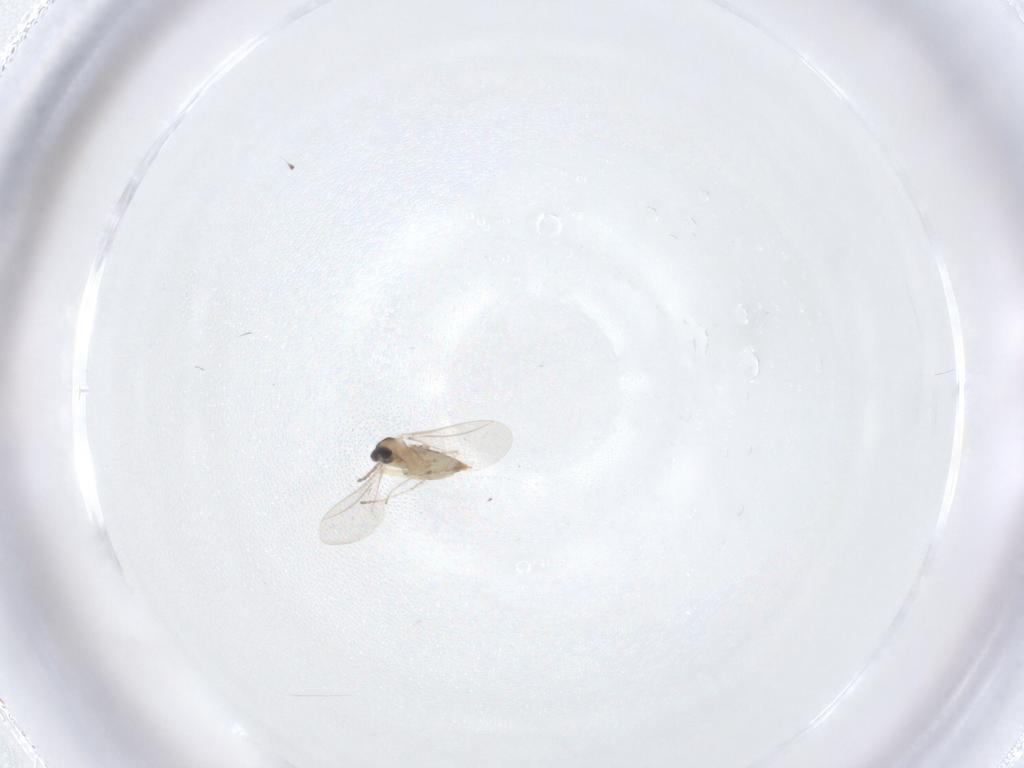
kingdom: Animalia
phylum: Arthropoda
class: Insecta
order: Diptera
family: Cecidomyiidae
